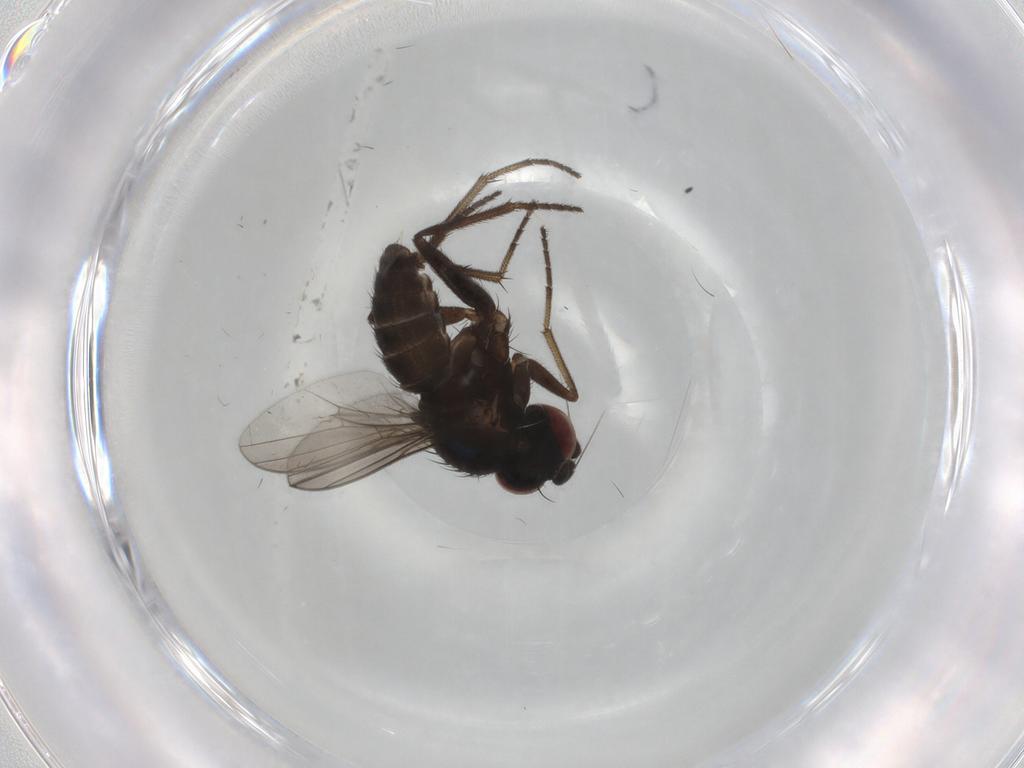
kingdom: Animalia
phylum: Arthropoda
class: Insecta
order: Diptera
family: Dolichopodidae
